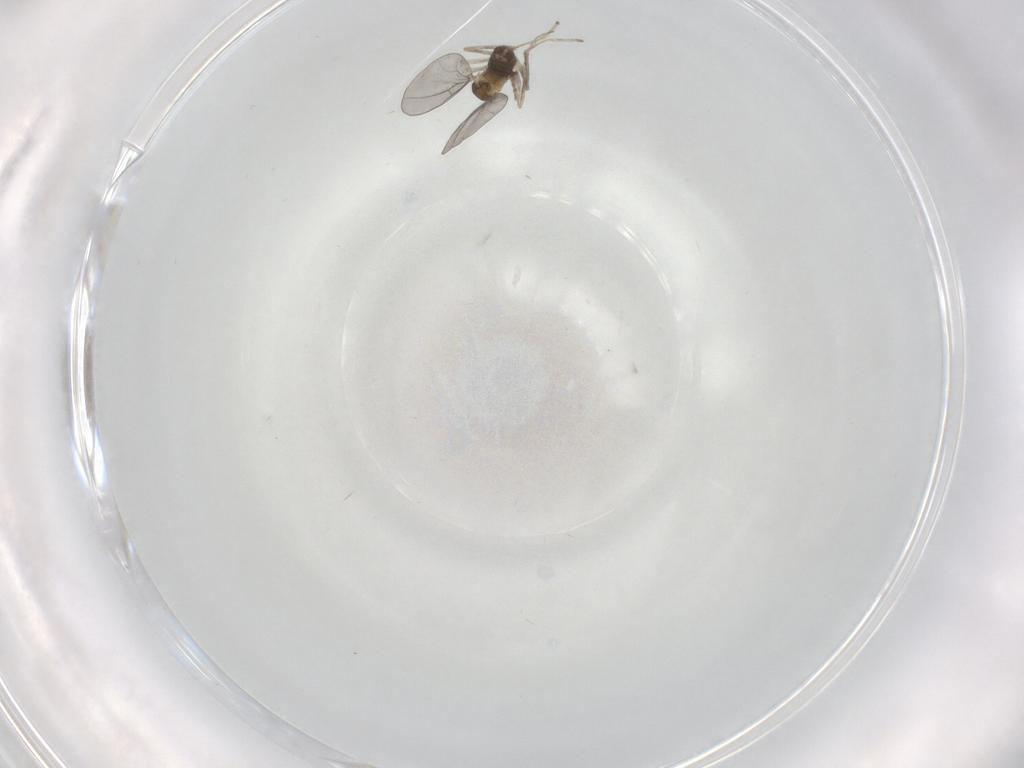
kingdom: Animalia
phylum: Arthropoda
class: Insecta
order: Diptera
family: Cecidomyiidae
